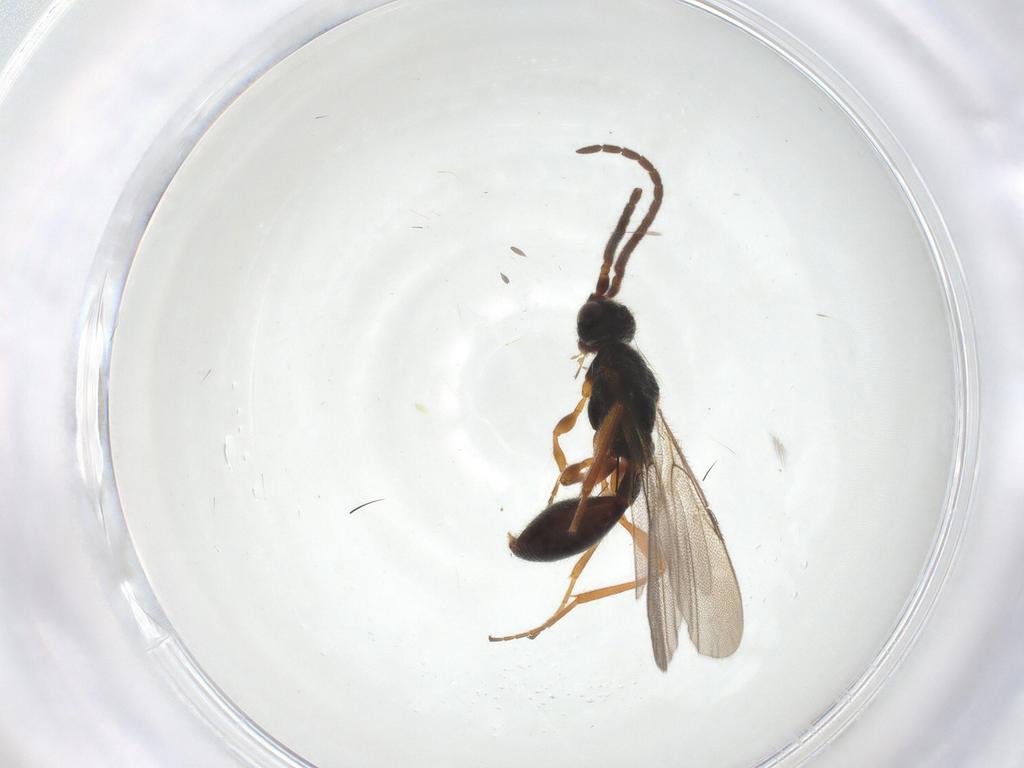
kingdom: Animalia
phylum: Arthropoda
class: Insecta
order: Hymenoptera
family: Diapriidae
